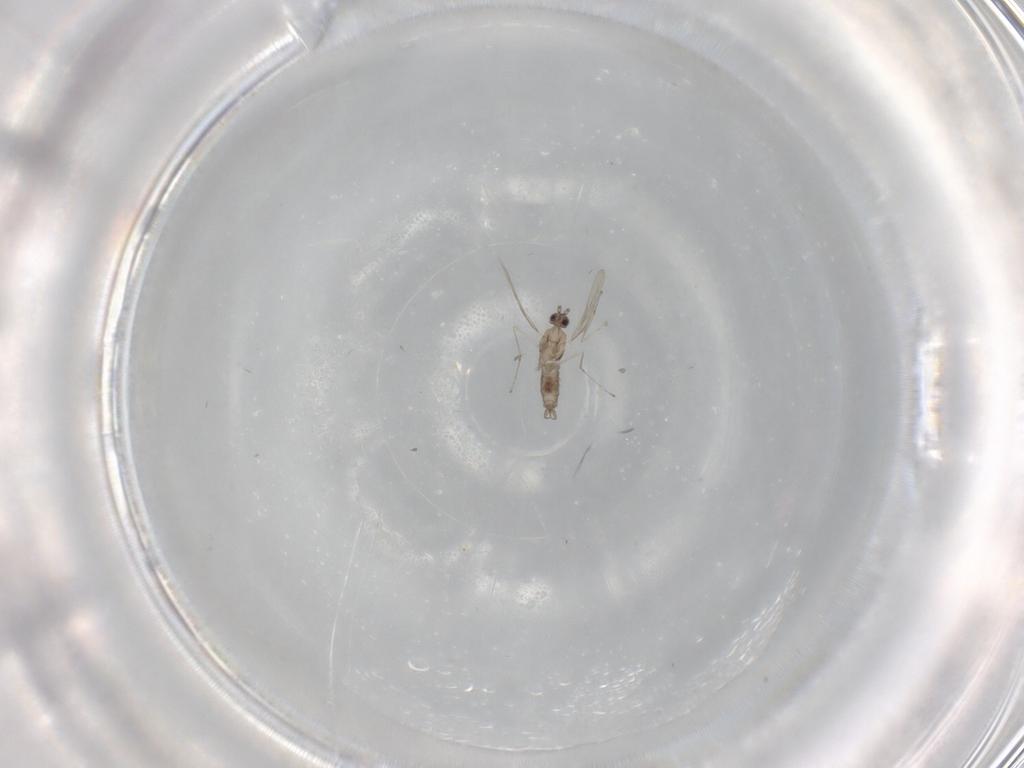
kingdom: Animalia
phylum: Arthropoda
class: Insecta
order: Diptera
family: Cecidomyiidae
